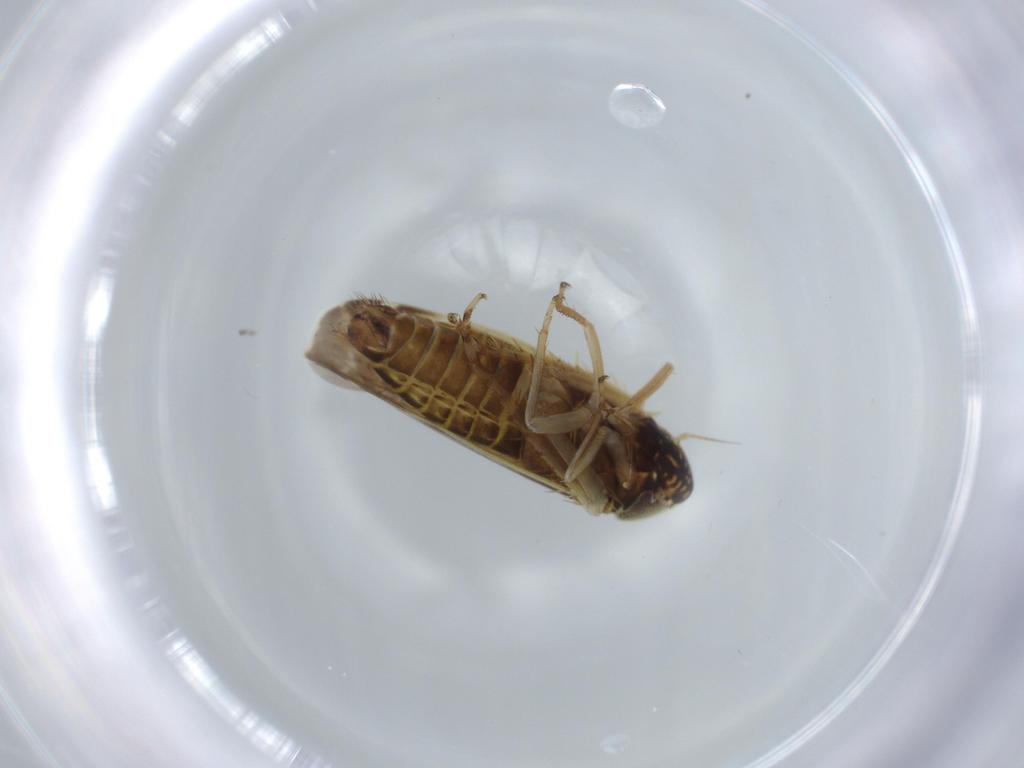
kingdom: Animalia
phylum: Arthropoda
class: Insecta
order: Hemiptera
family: Cicadellidae
